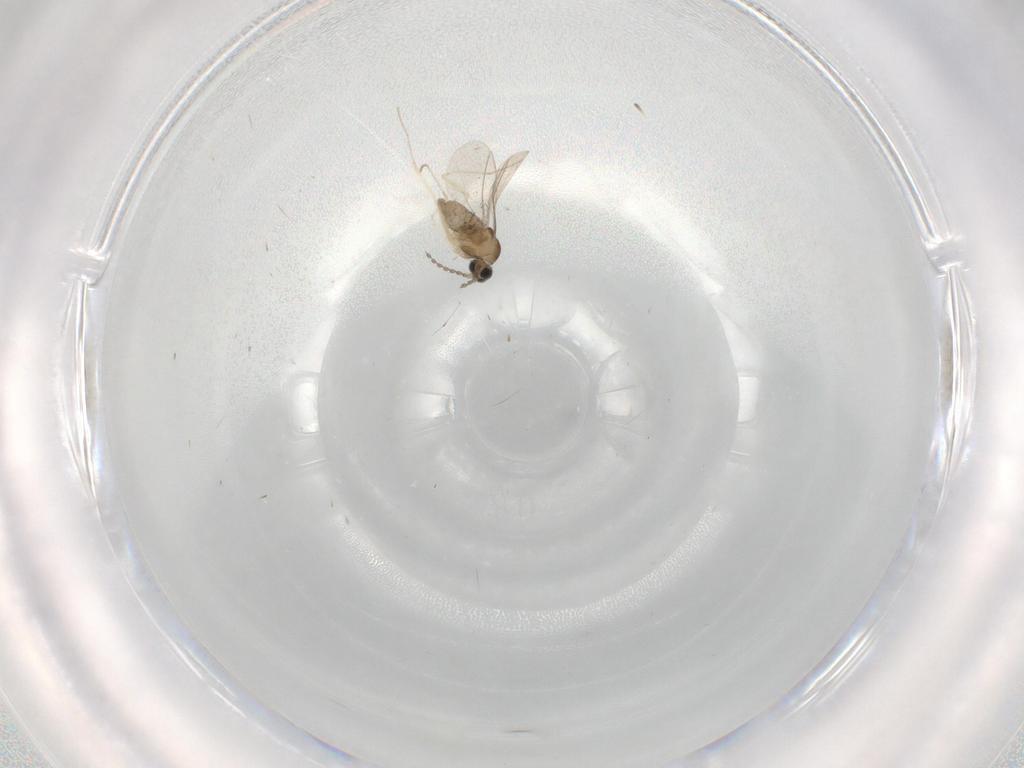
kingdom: Animalia
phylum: Arthropoda
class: Insecta
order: Diptera
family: Cecidomyiidae
